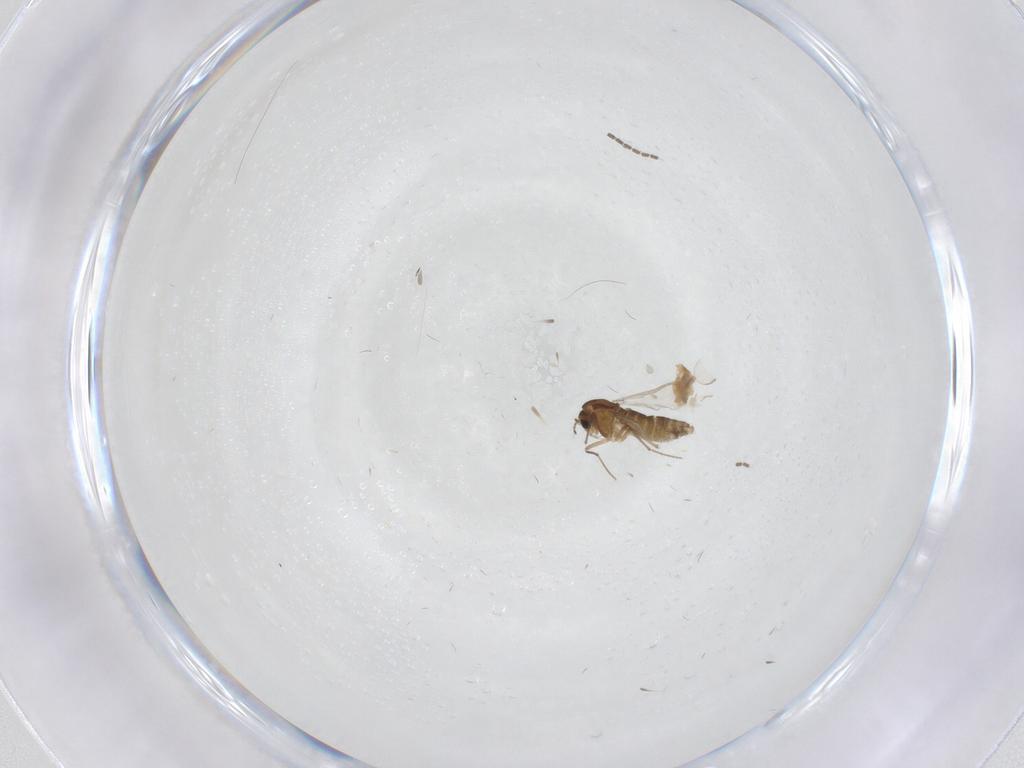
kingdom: Animalia
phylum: Arthropoda
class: Insecta
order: Diptera
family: Chironomidae
